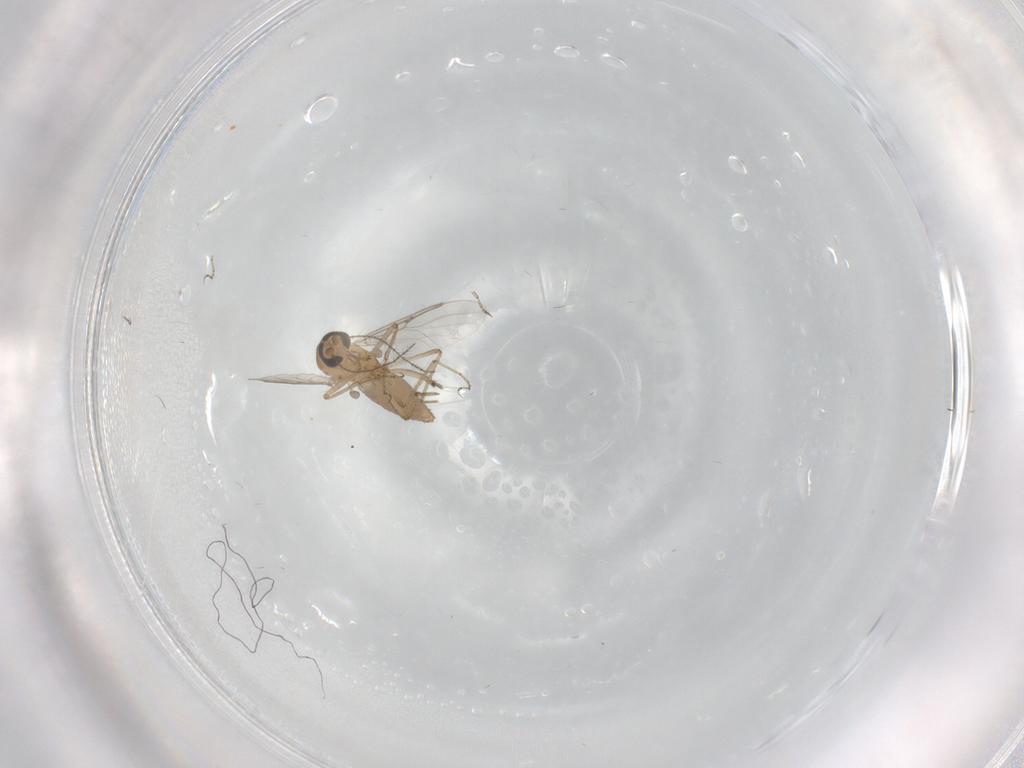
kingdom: Animalia
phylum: Arthropoda
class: Insecta
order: Diptera
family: Ceratopogonidae
